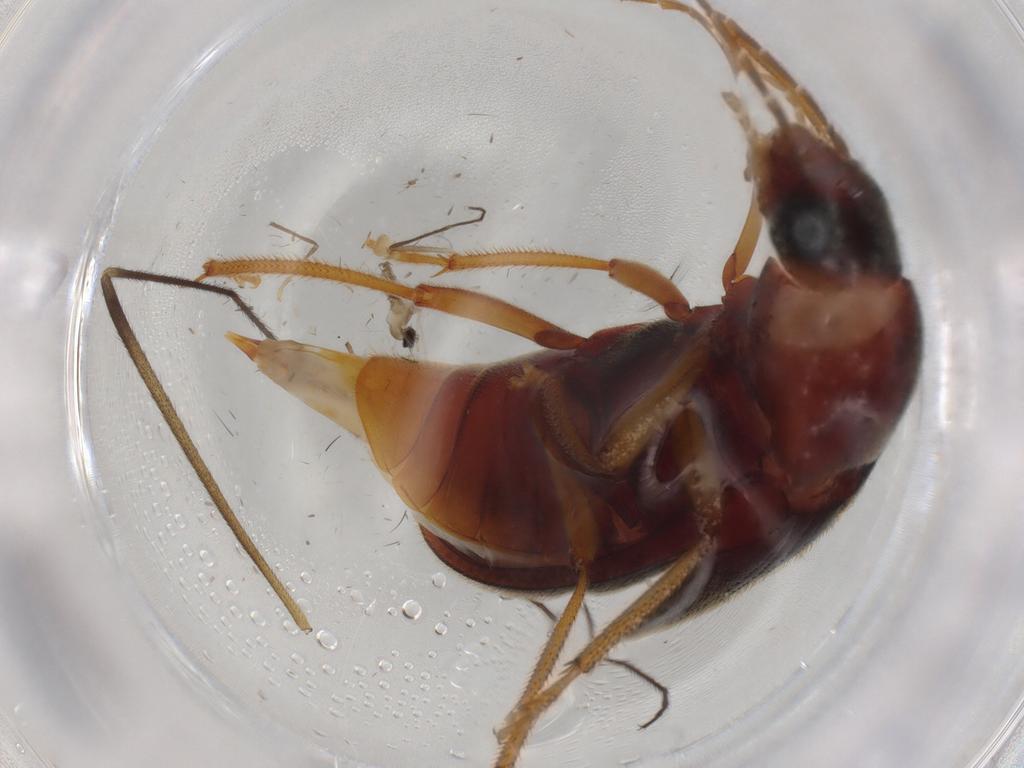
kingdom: Animalia
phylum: Arthropoda
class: Insecta
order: Diptera
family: Cecidomyiidae
